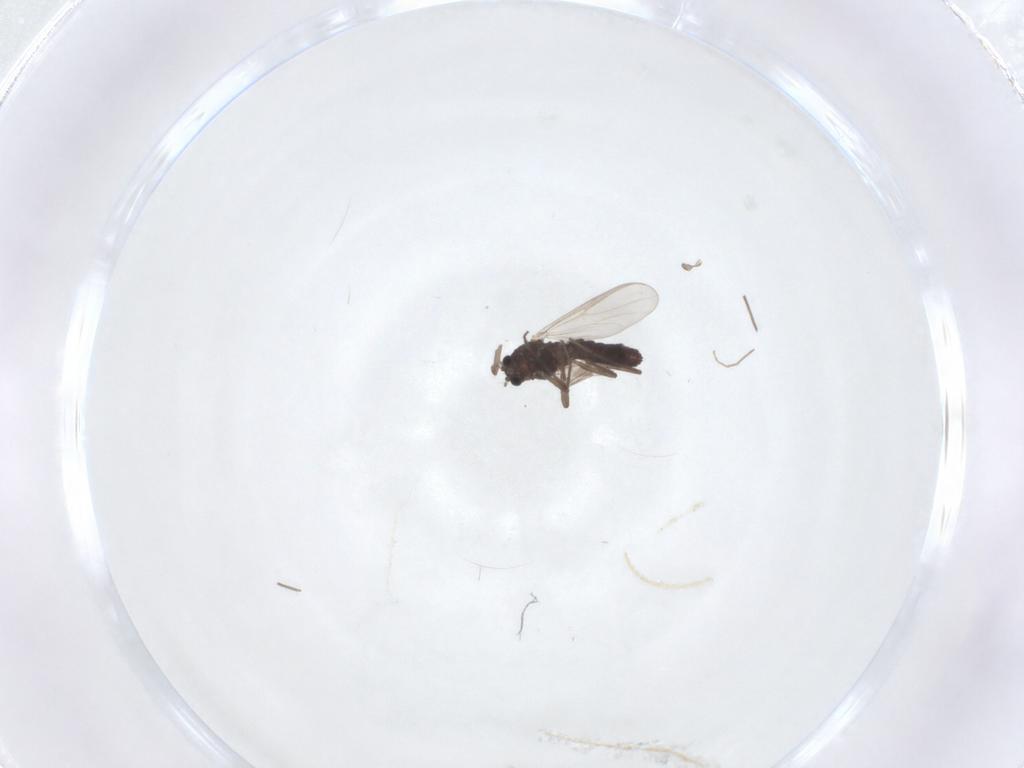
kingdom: Animalia
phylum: Arthropoda
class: Insecta
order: Diptera
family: Chironomidae
